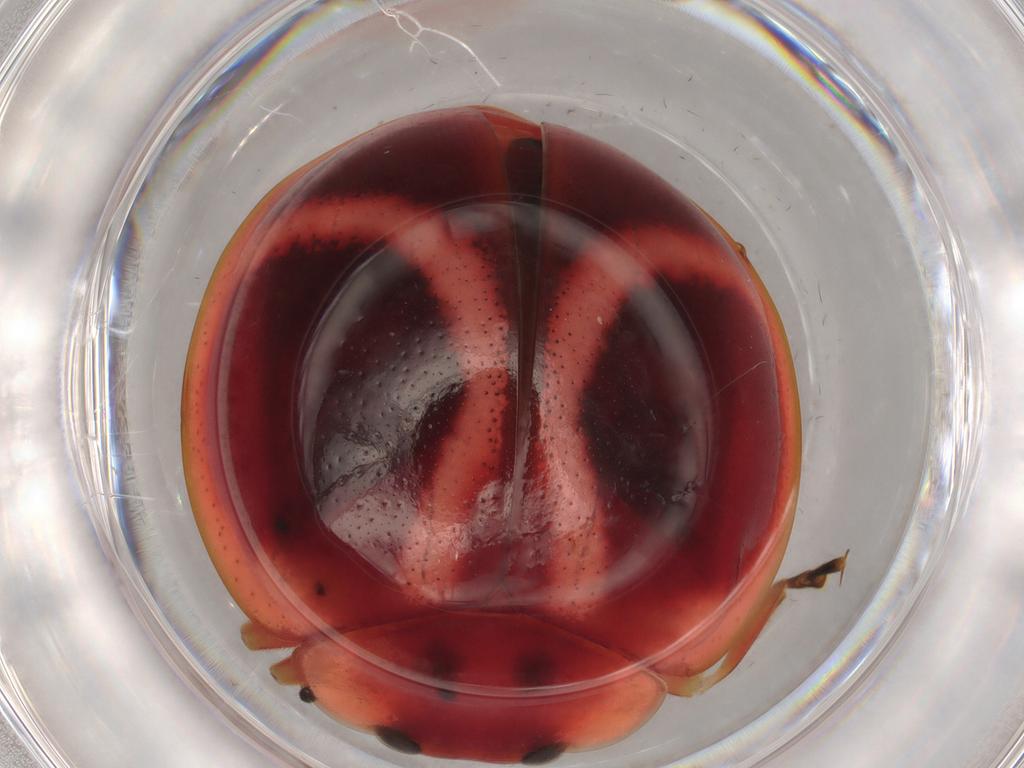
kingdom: Animalia
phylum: Arthropoda
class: Insecta
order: Coleoptera
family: Coccinellidae
